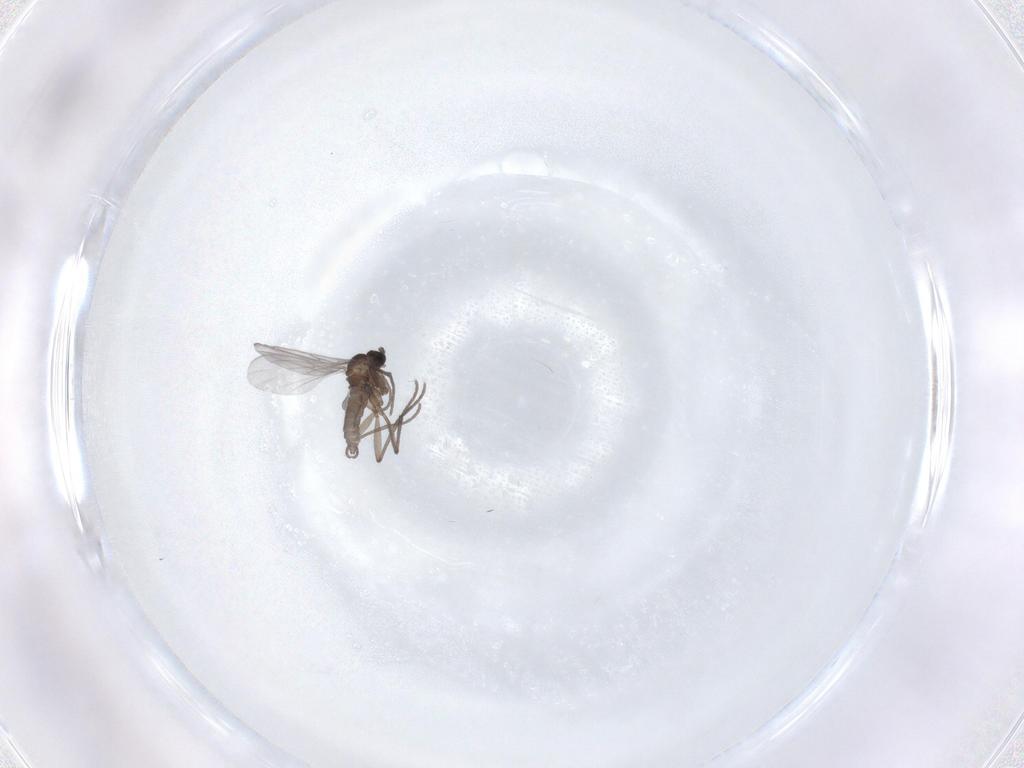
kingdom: Animalia
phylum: Arthropoda
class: Insecta
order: Diptera
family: Sciaridae
